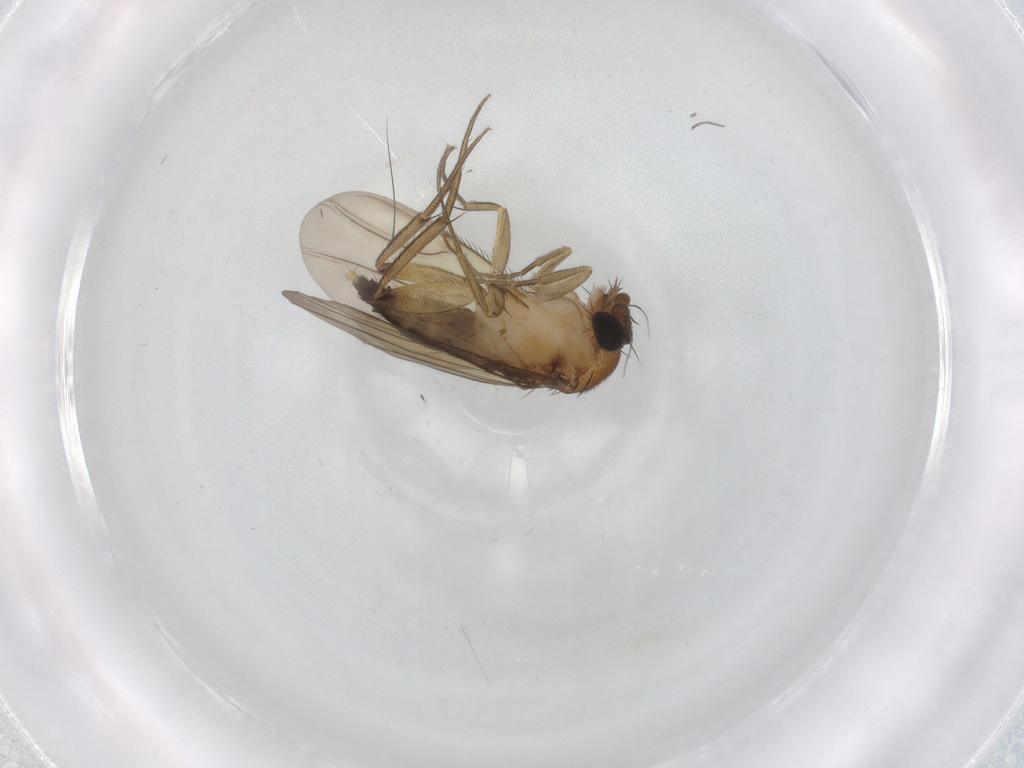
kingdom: Animalia
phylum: Arthropoda
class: Insecta
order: Diptera
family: Phoridae
